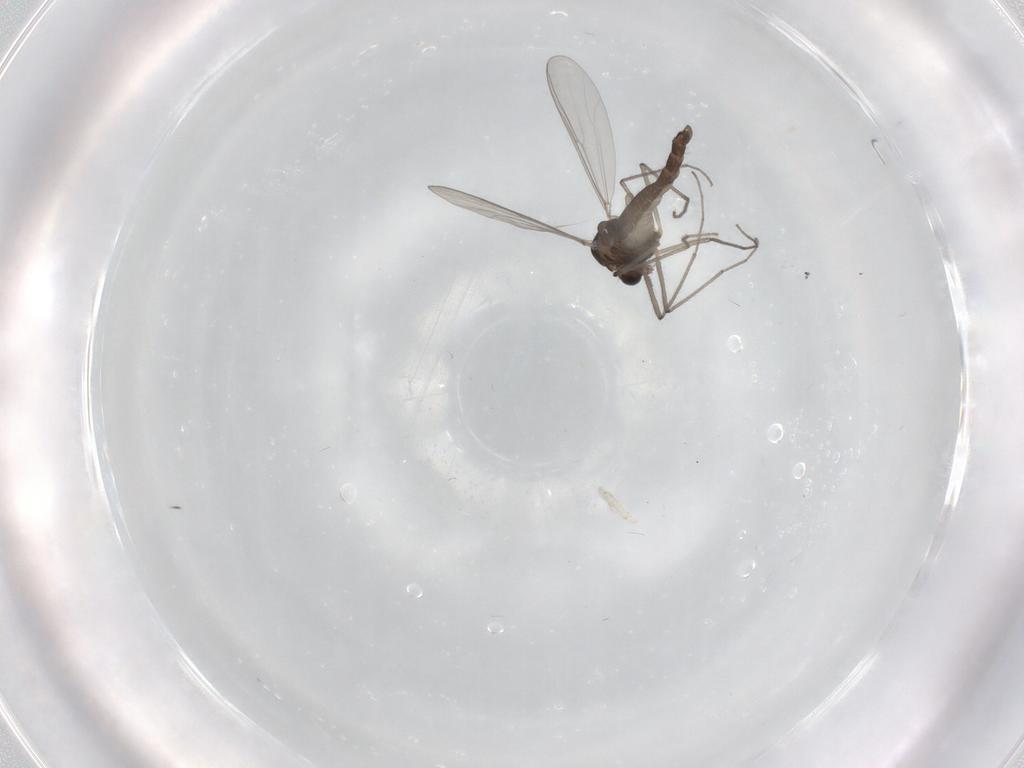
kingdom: Animalia
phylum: Arthropoda
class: Insecta
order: Diptera
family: Chironomidae
